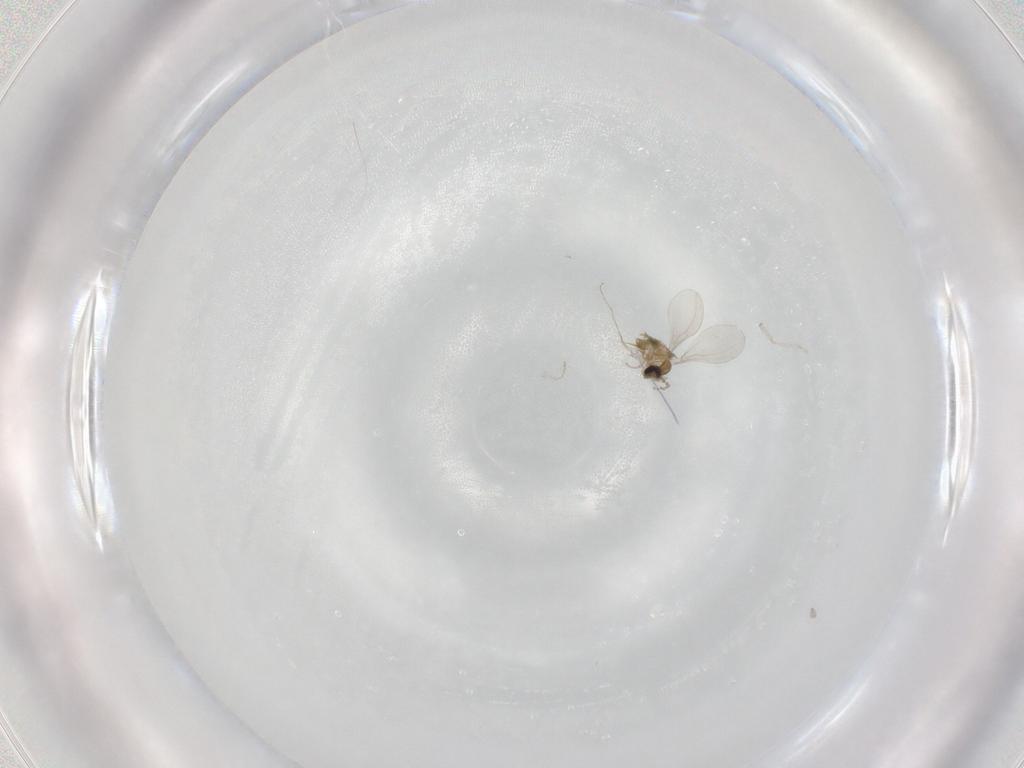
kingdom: Animalia
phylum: Arthropoda
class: Insecta
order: Diptera
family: Cecidomyiidae
